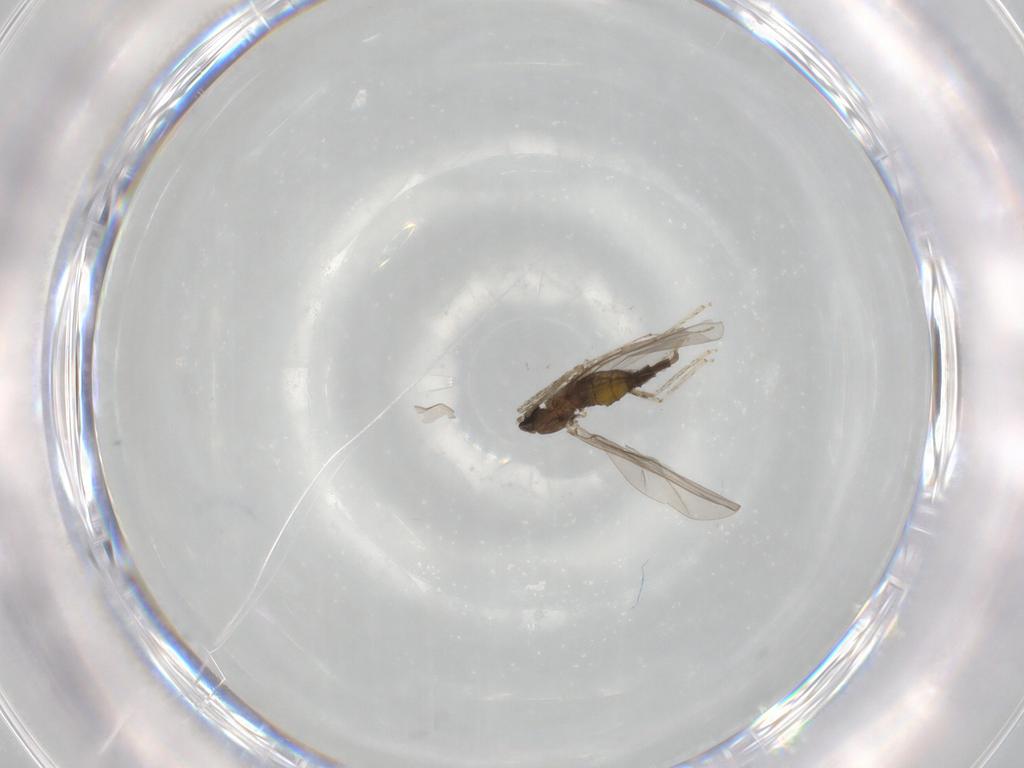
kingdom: Animalia
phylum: Arthropoda
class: Insecta
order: Diptera
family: Cecidomyiidae
